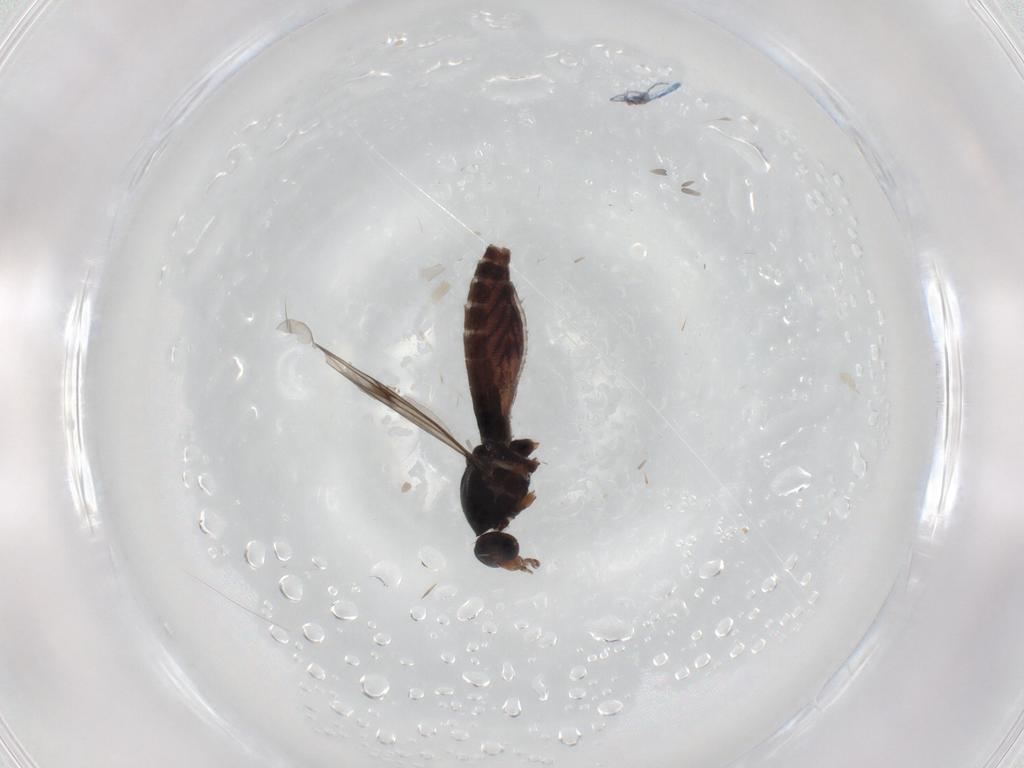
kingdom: Animalia
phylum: Arthropoda
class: Insecta
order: Diptera
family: Ceratopogonidae
